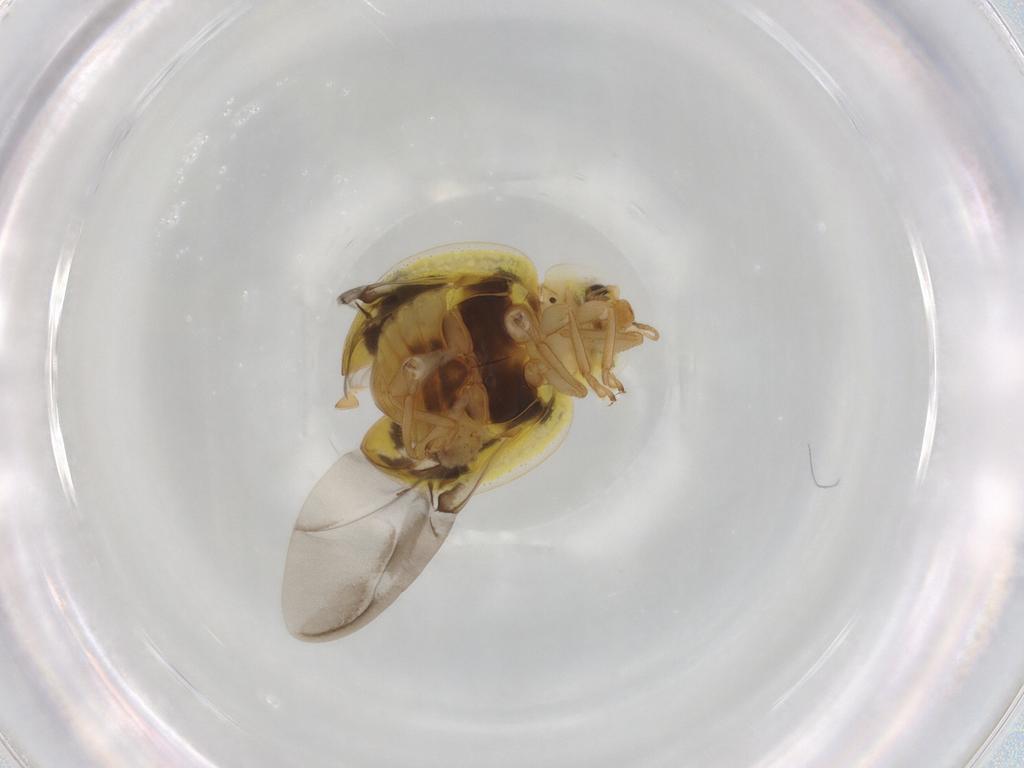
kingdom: Animalia
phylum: Arthropoda
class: Insecta
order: Coleoptera
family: Coccinellidae
